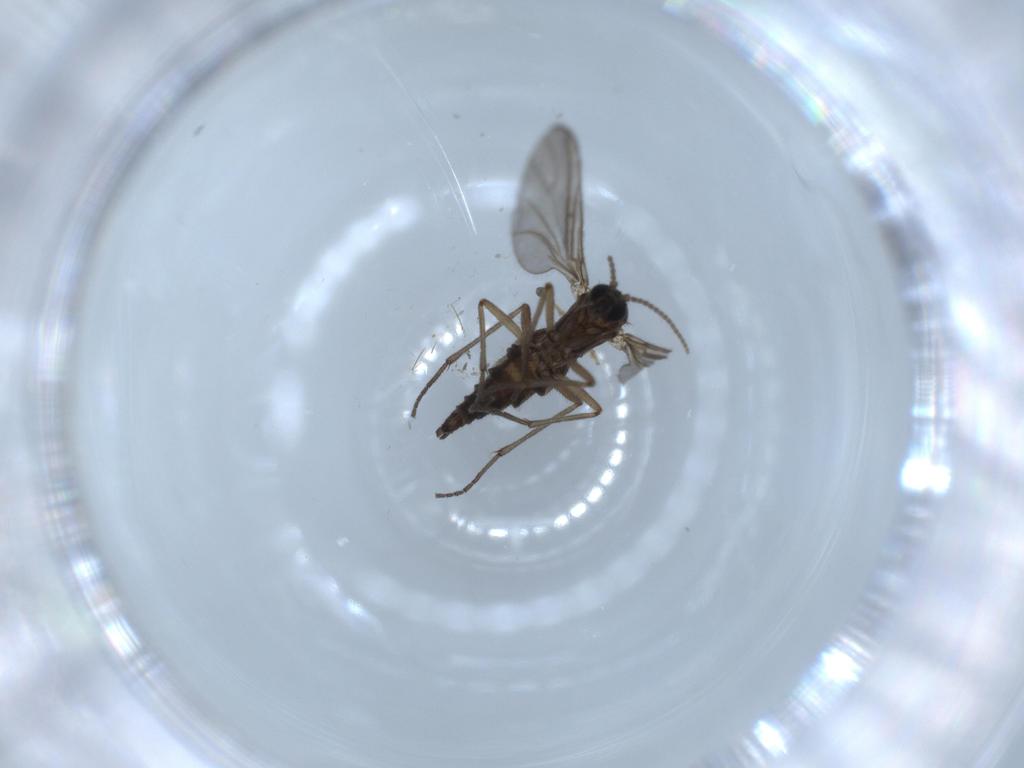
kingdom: Animalia
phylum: Arthropoda
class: Insecta
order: Diptera
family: Sciaridae
